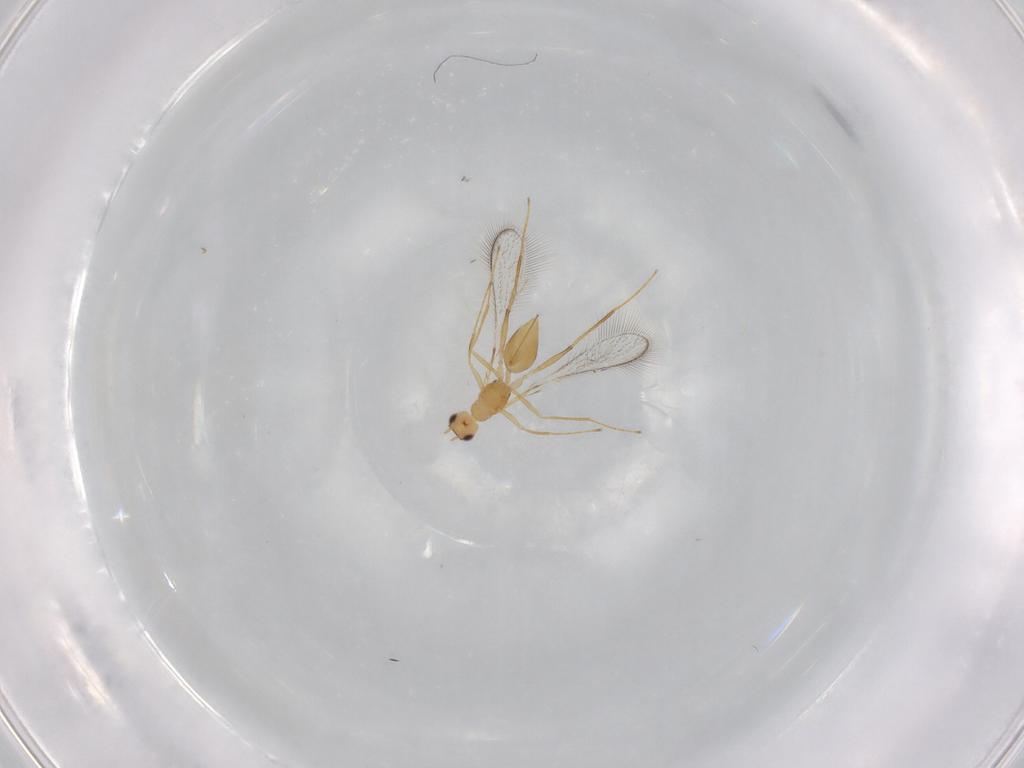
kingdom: Animalia
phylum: Arthropoda
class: Insecta
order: Hymenoptera
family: Mymaridae
